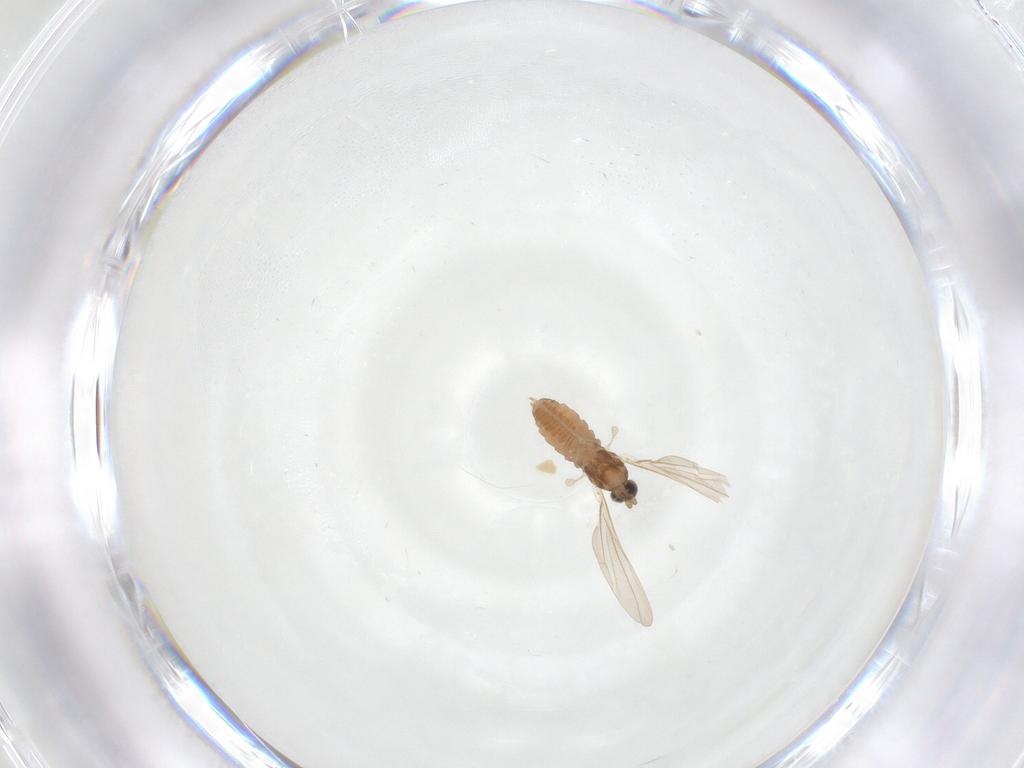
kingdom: Animalia
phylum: Arthropoda
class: Insecta
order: Diptera
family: Cecidomyiidae
